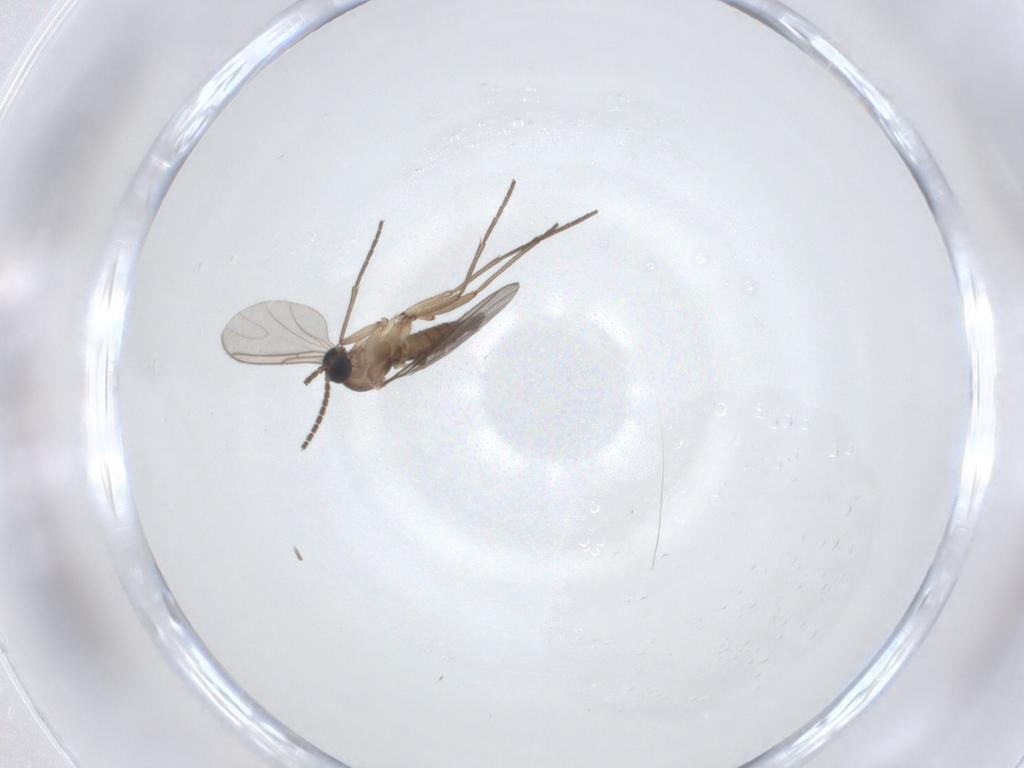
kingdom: Animalia
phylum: Arthropoda
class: Insecta
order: Diptera
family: Sciaridae
